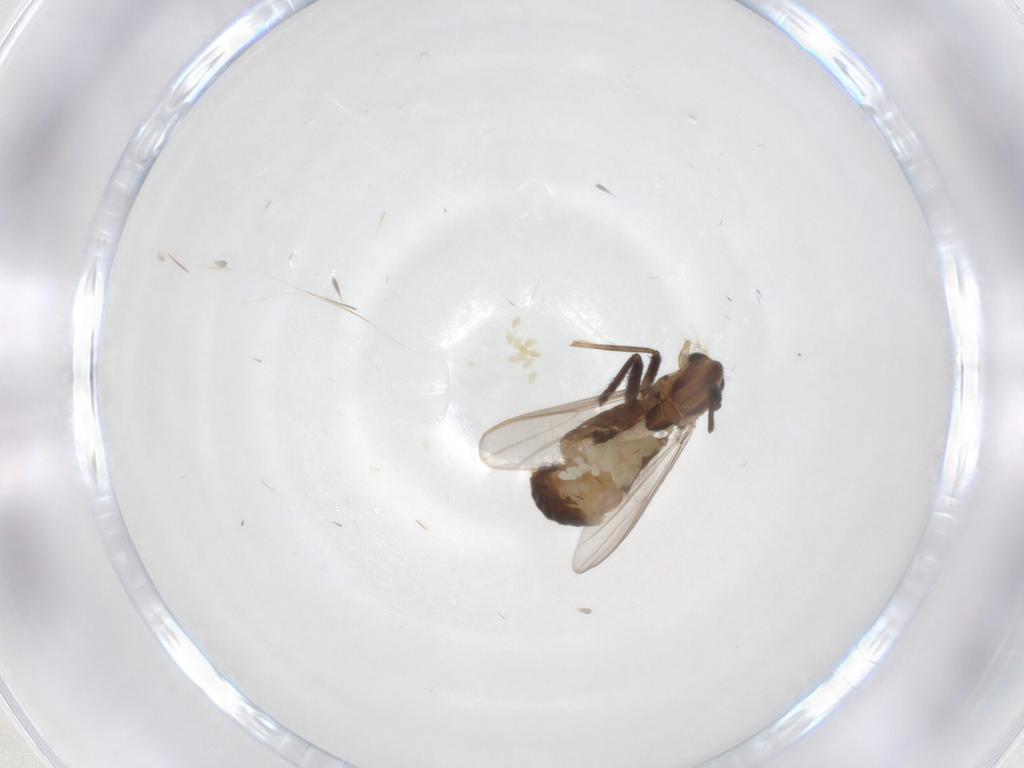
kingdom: Animalia
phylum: Arthropoda
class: Insecta
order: Diptera
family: Chironomidae
